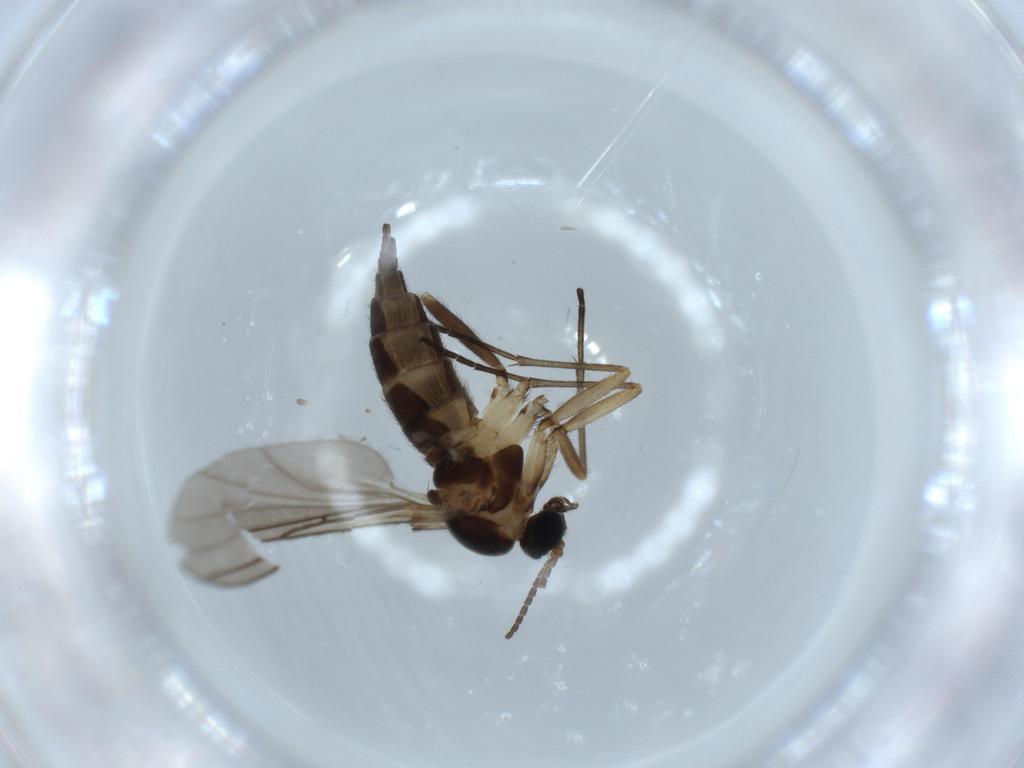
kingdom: Animalia
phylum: Arthropoda
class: Insecta
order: Diptera
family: Sciaridae
